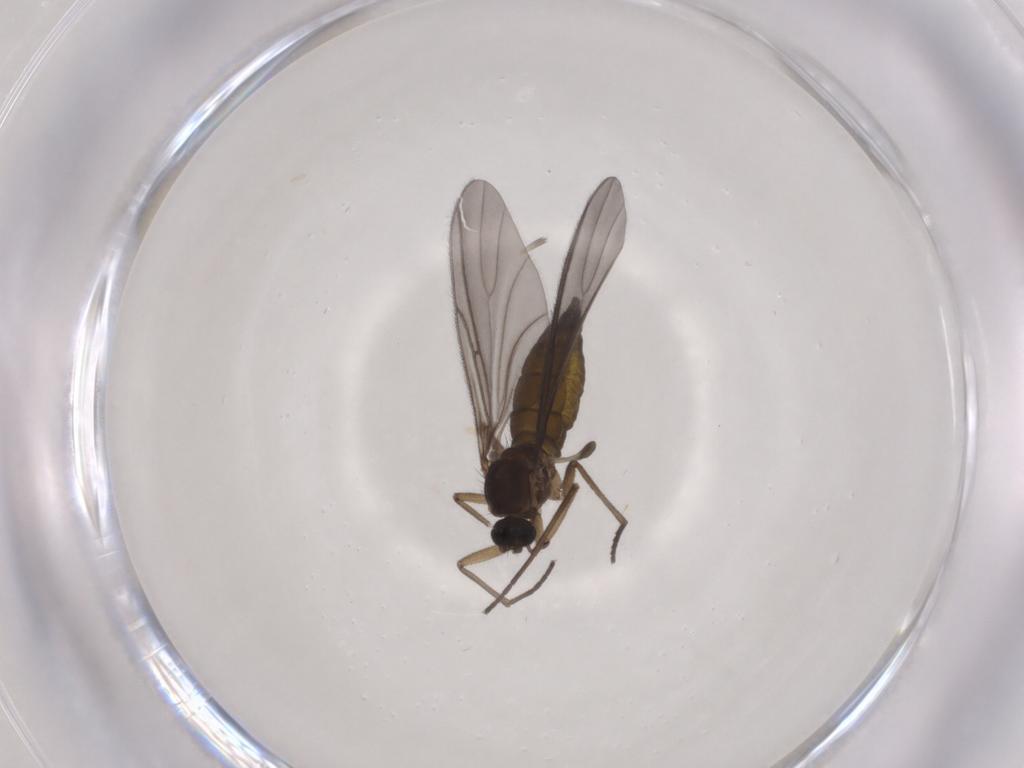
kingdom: Animalia
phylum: Arthropoda
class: Insecta
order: Diptera
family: Sciaridae
